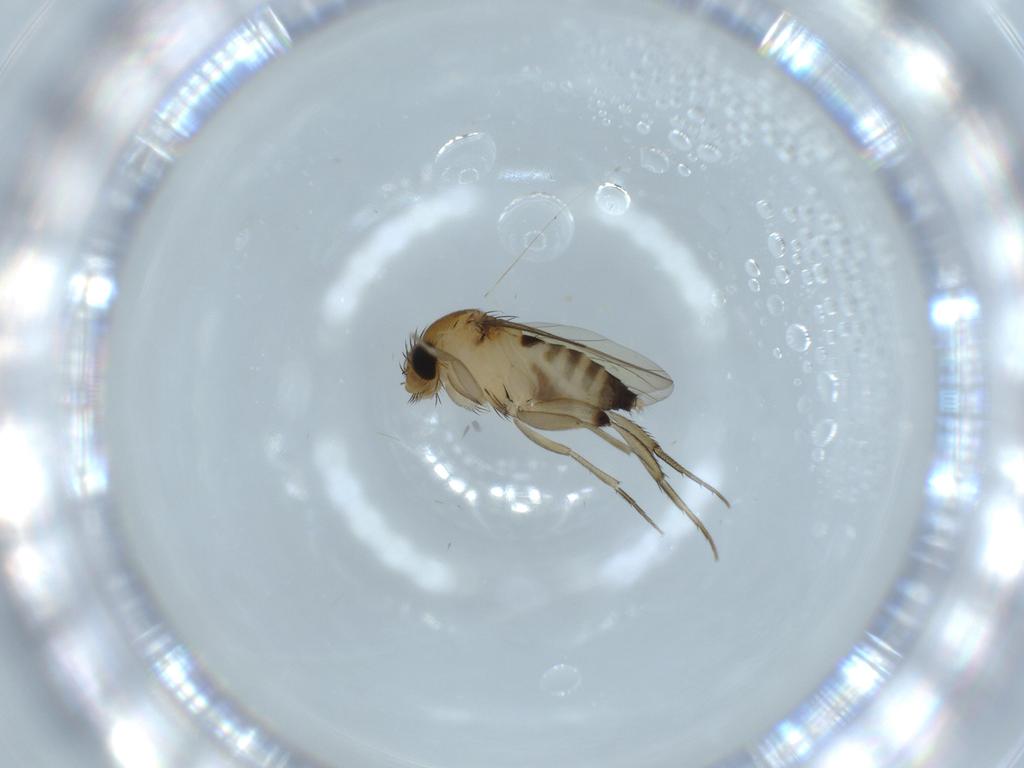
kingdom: Animalia
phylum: Arthropoda
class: Insecta
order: Diptera
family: Phoridae
